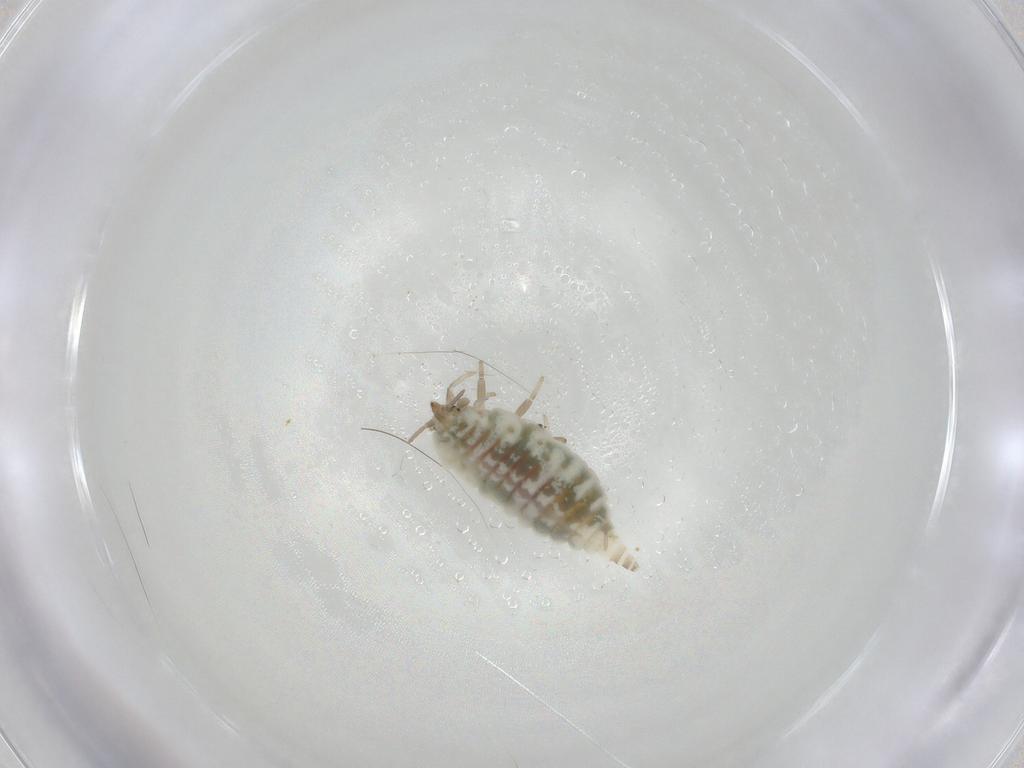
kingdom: Animalia
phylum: Arthropoda
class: Insecta
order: Neuroptera
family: Coniopterygidae
